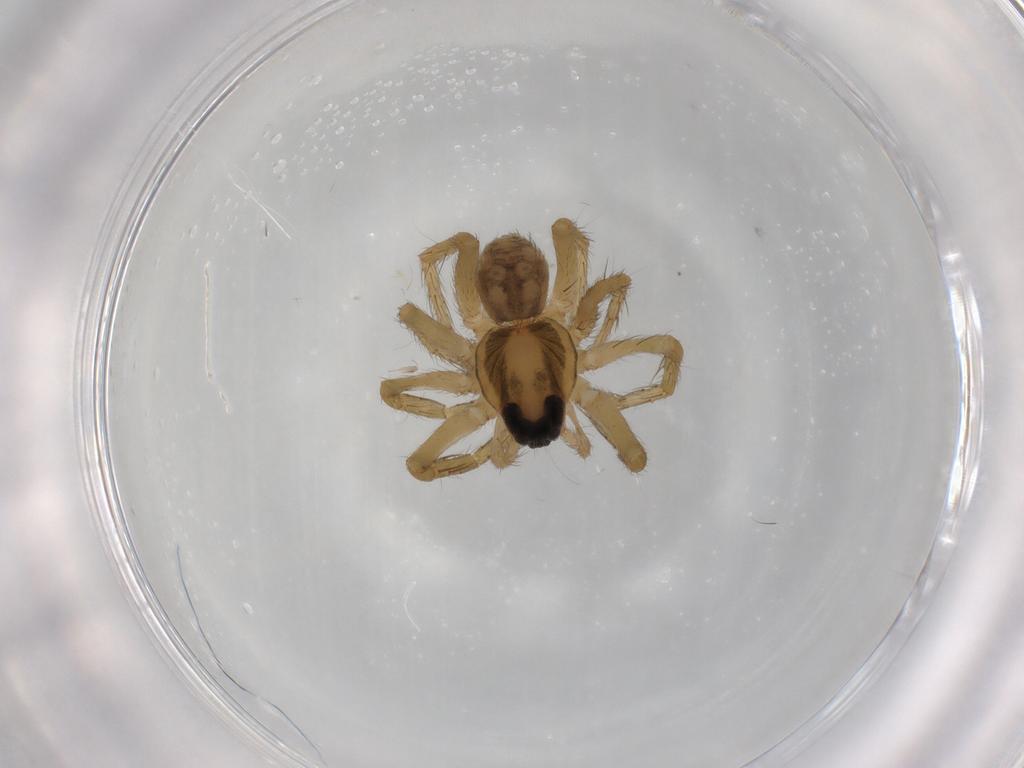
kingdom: Animalia
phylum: Arthropoda
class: Arachnida
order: Araneae
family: Lycosidae
